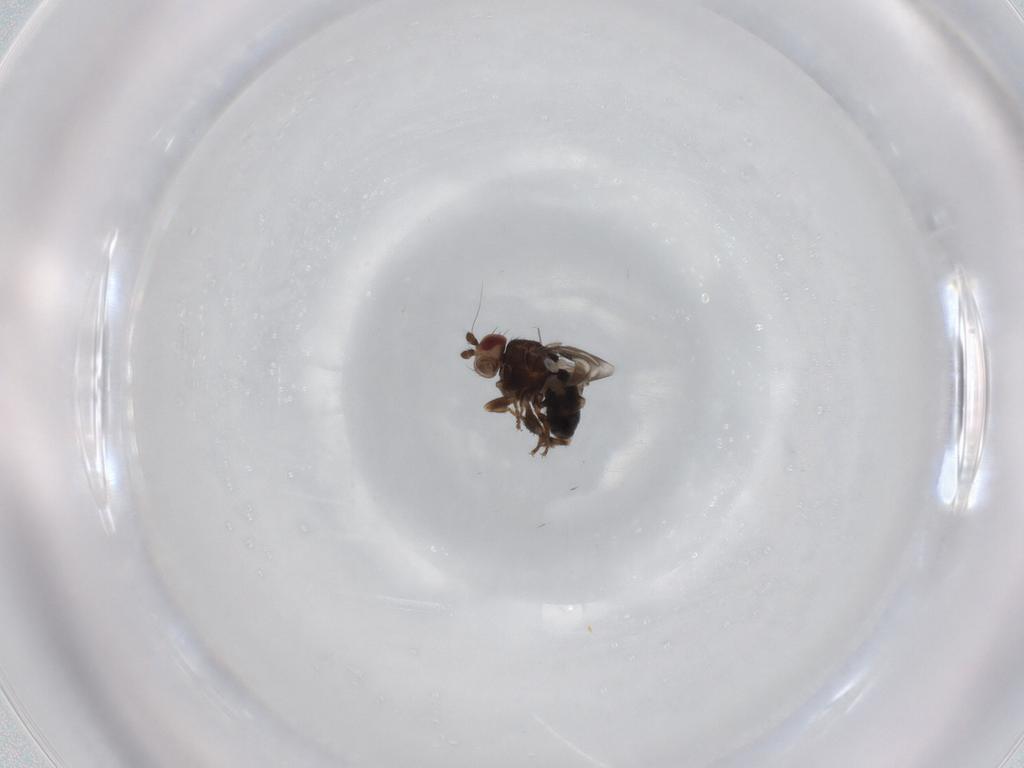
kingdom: Animalia
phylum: Arthropoda
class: Insecta
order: Diptera
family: Sphaeroceridae
